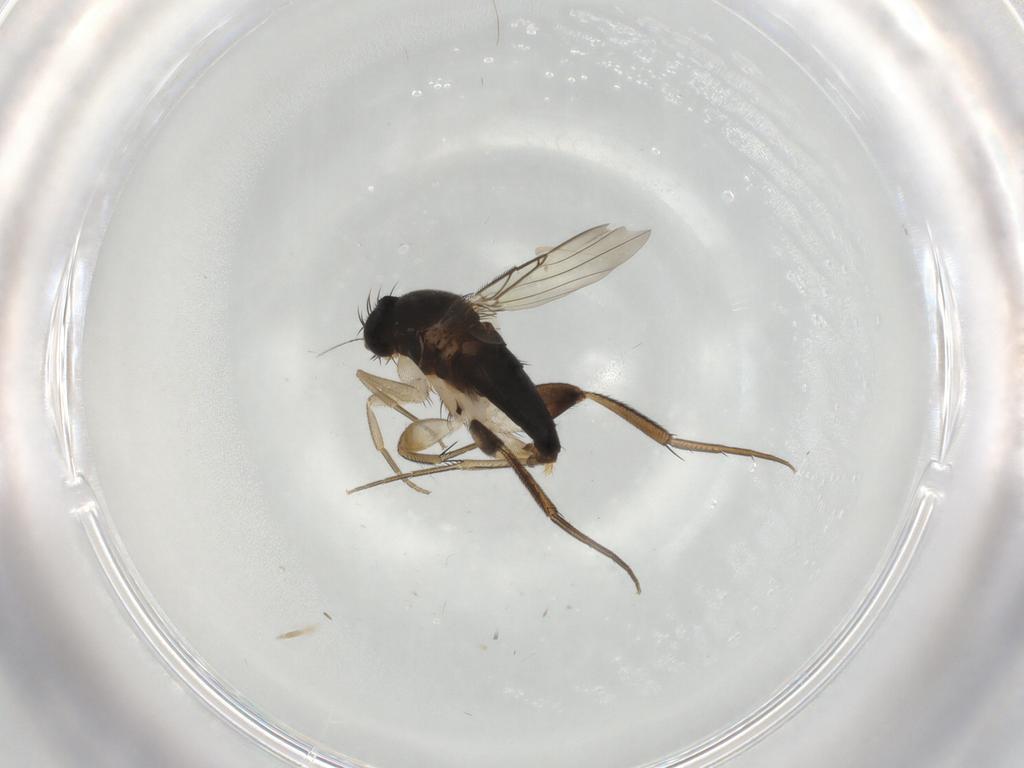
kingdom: Animalia
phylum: Arthropoda
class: Insecta
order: Diptera
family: Phoridae
